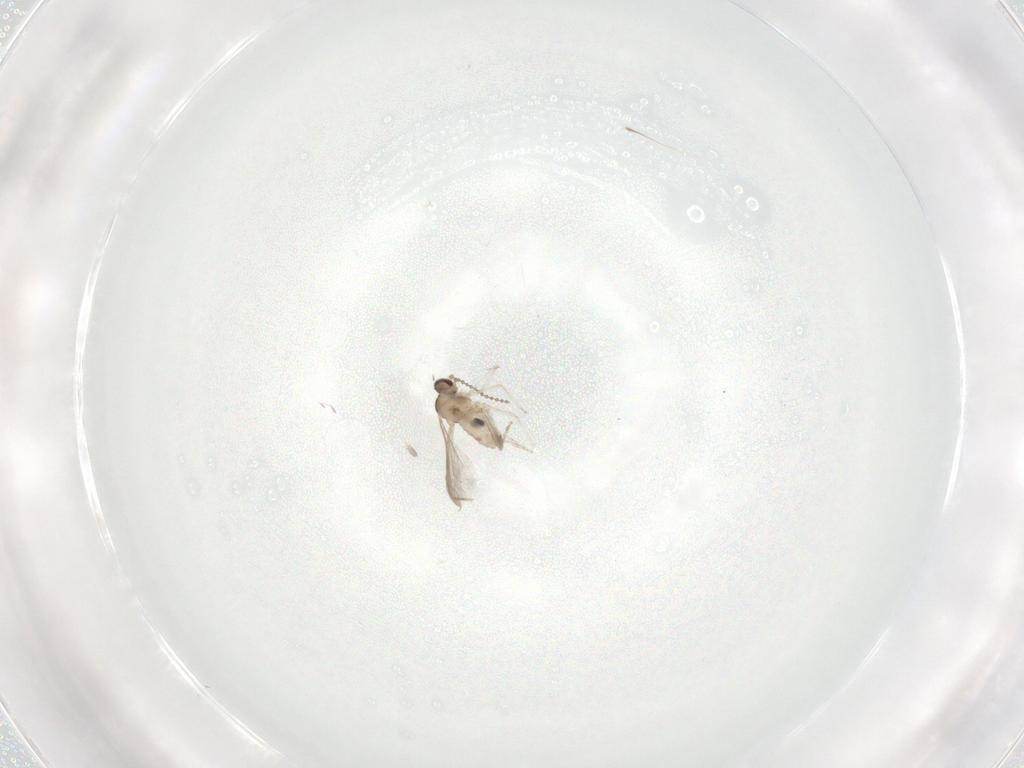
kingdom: Animalia
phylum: Arthropoda
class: Insecta
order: Diptera
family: Cecidomyiidae
